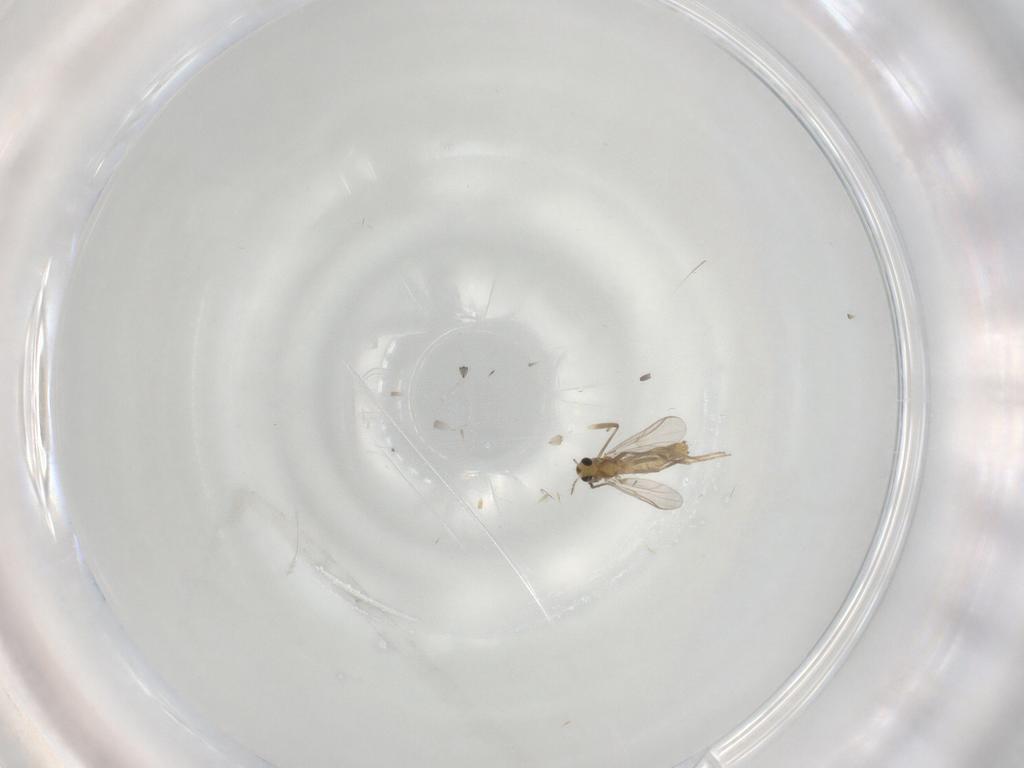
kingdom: Animalia
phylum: Arthropoda
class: Insecta
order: Diptera
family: Chironomidae
